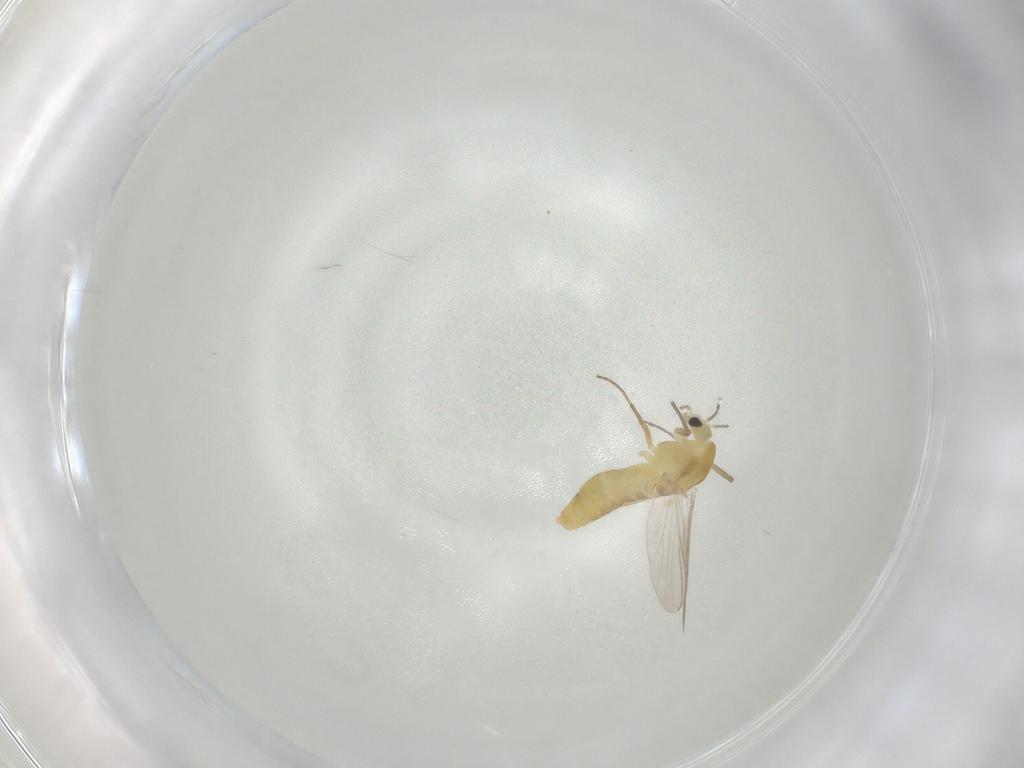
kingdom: Animalia
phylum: Arthropoda
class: Insecta
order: Diptera
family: Chironomidae
